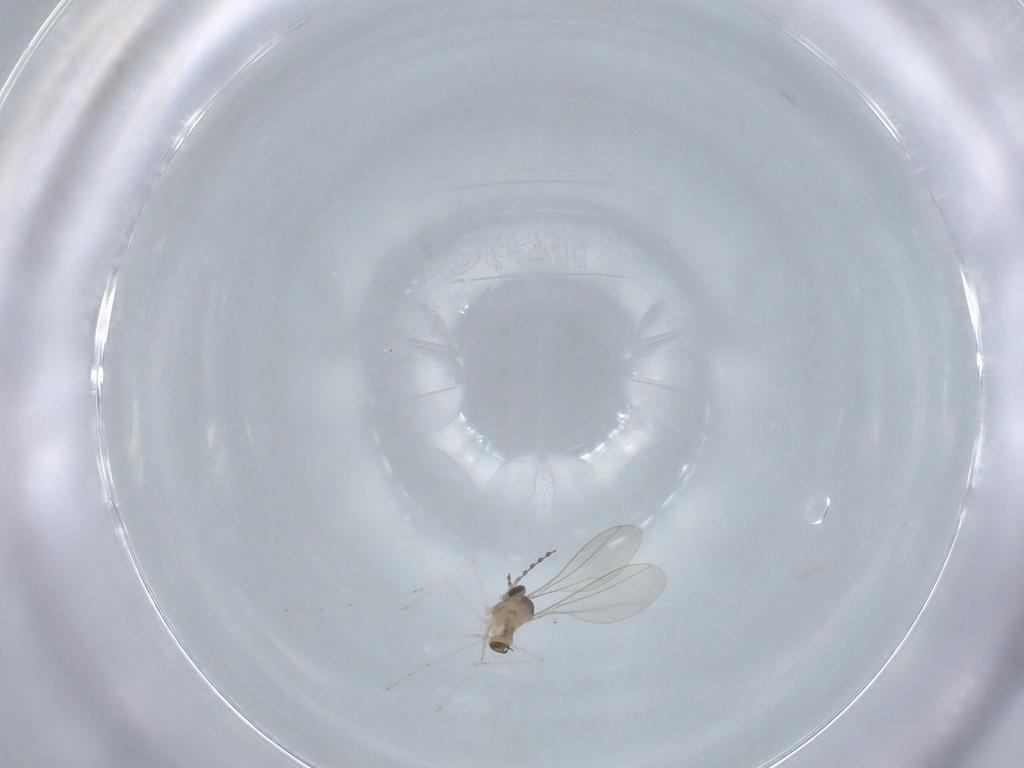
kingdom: Animalia
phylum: Arthropoda
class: Insecta
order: Diptera
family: Sciaridae
